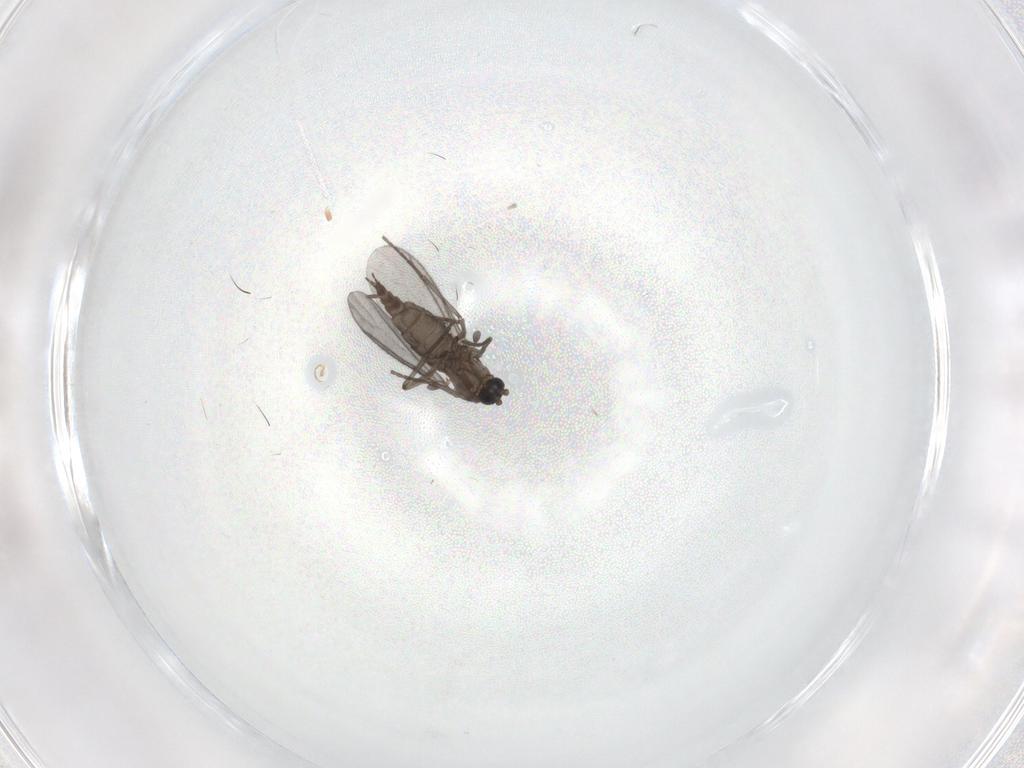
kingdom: Animalia
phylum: Arthropoda
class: Insecta
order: Diptera
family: Sciaridae
